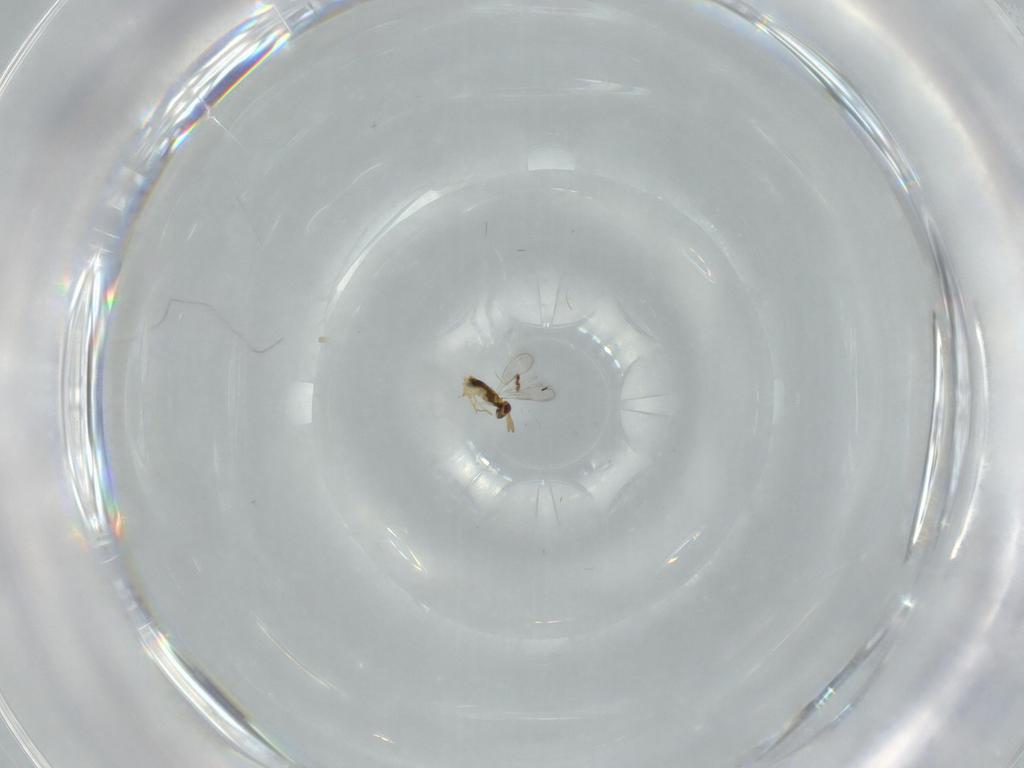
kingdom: Animalia
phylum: Arthropoda
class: Insecta
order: Hymenoptera
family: Aphelinidae
